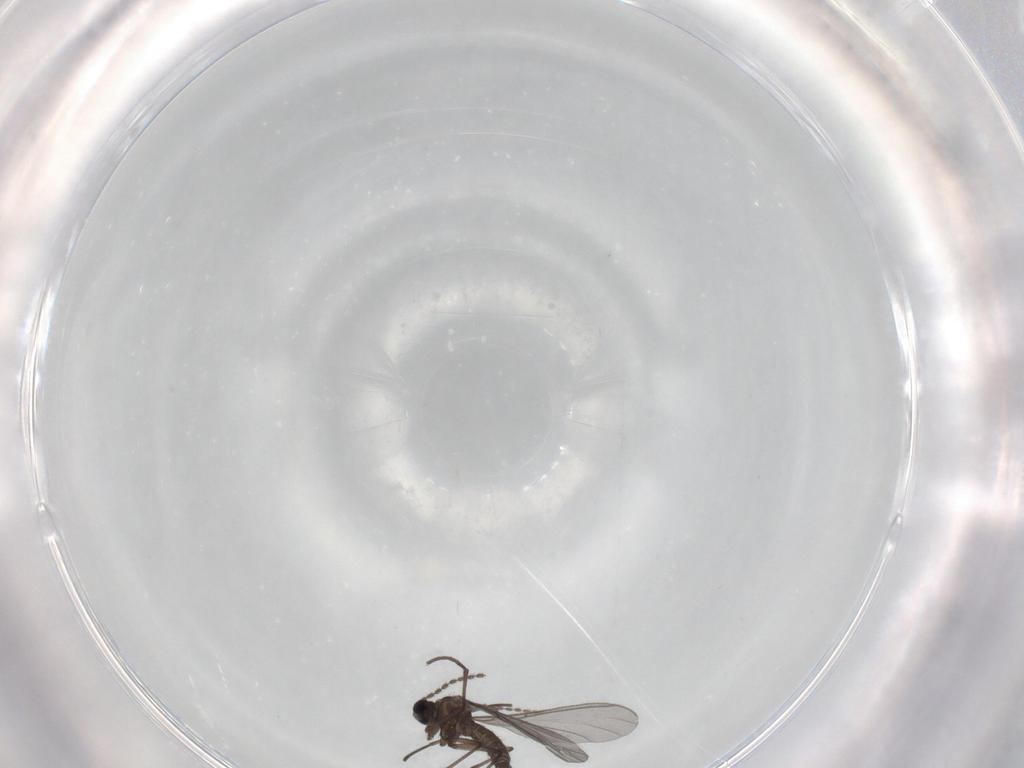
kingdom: Animalia
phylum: Arthropoda
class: Insecta
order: Diptera
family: Sciaridae
